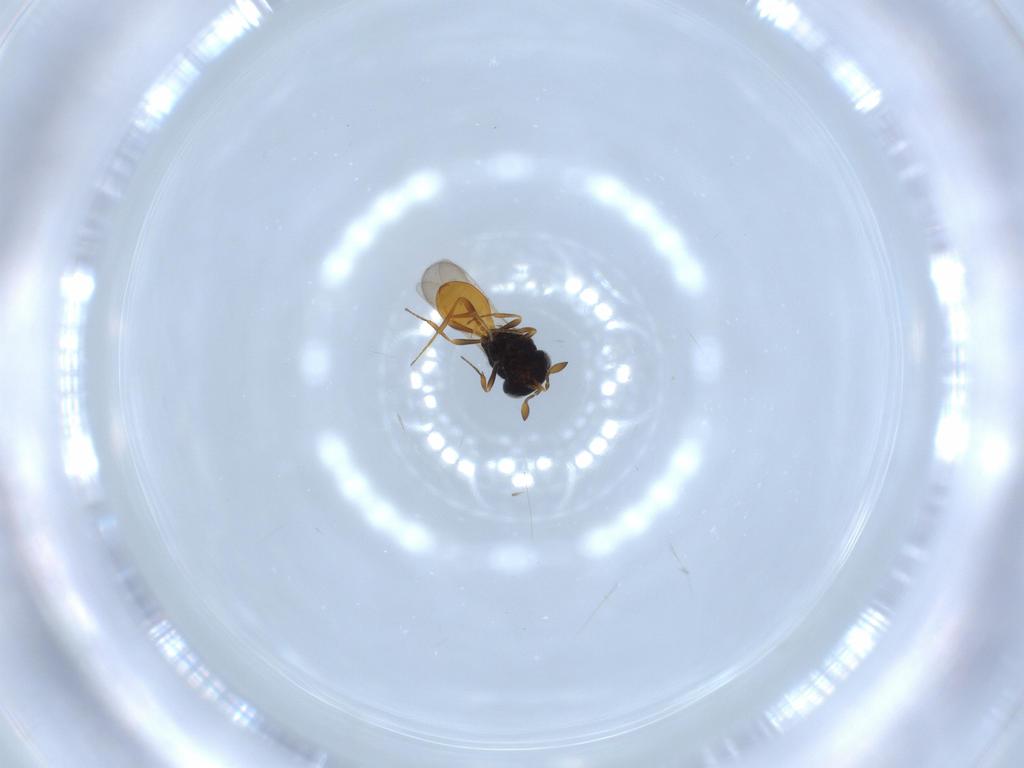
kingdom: Animalia
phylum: Arthropoda
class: Insecta
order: Hymenoptera
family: Scelionidae
